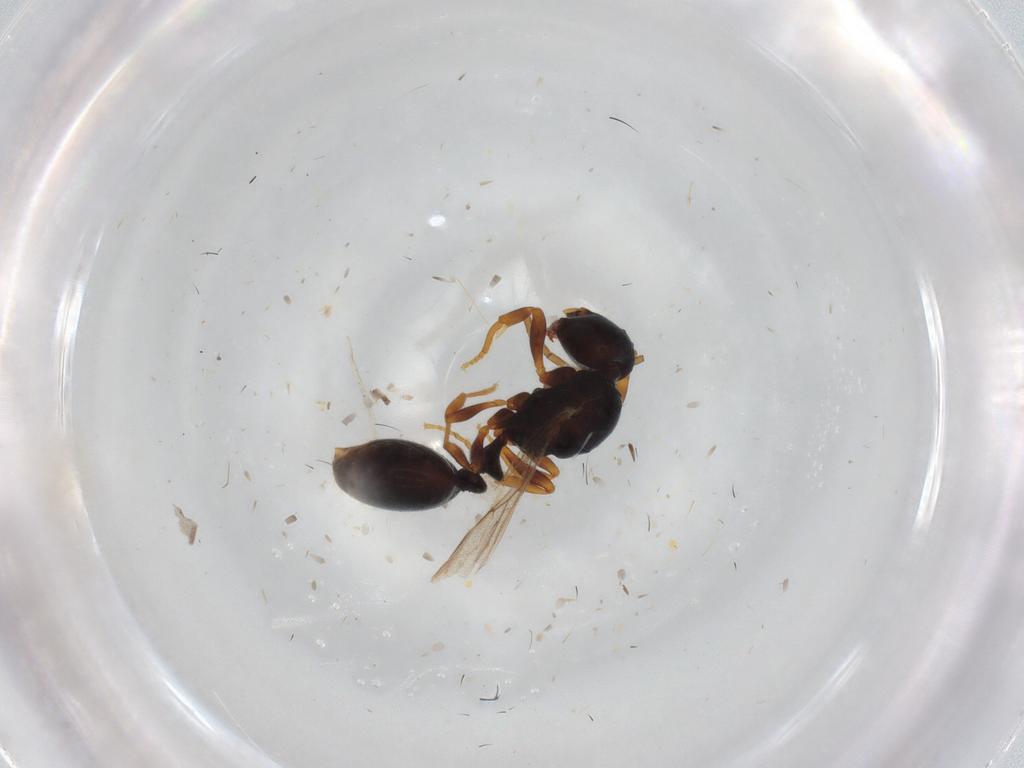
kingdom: Animalia
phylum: Arthropoda
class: Insecta
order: Hymenoptera
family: Formicidae
